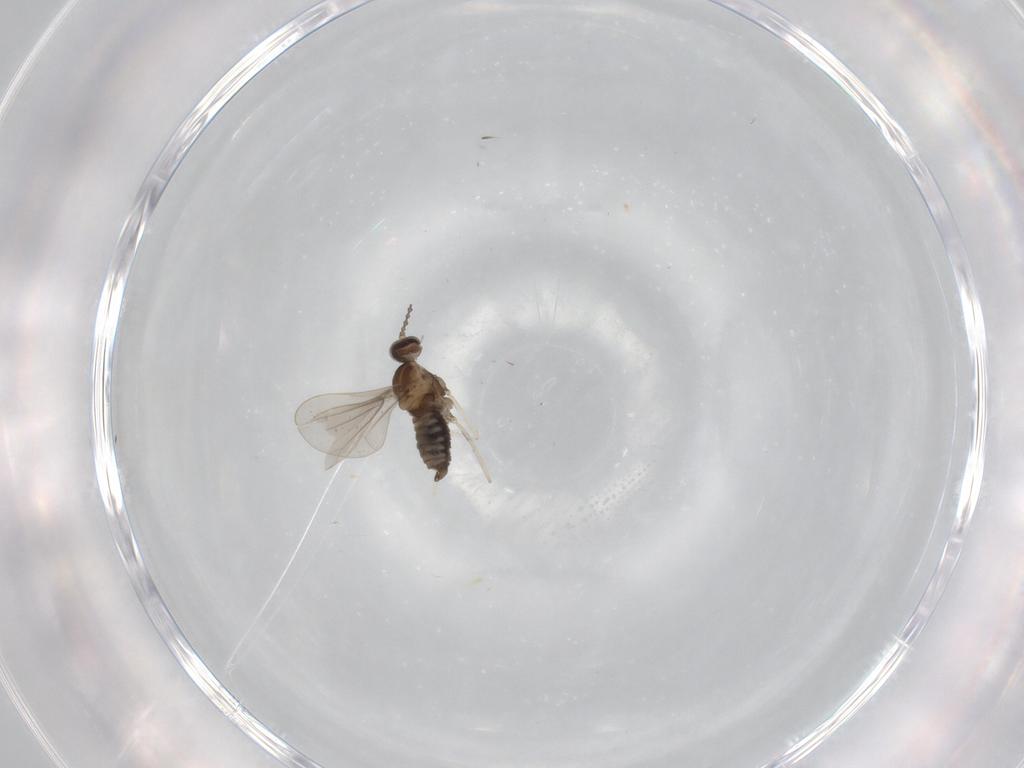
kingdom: Animalia
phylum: Arthropoda
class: Insecta
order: Diptera
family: Cecidomyiidae
